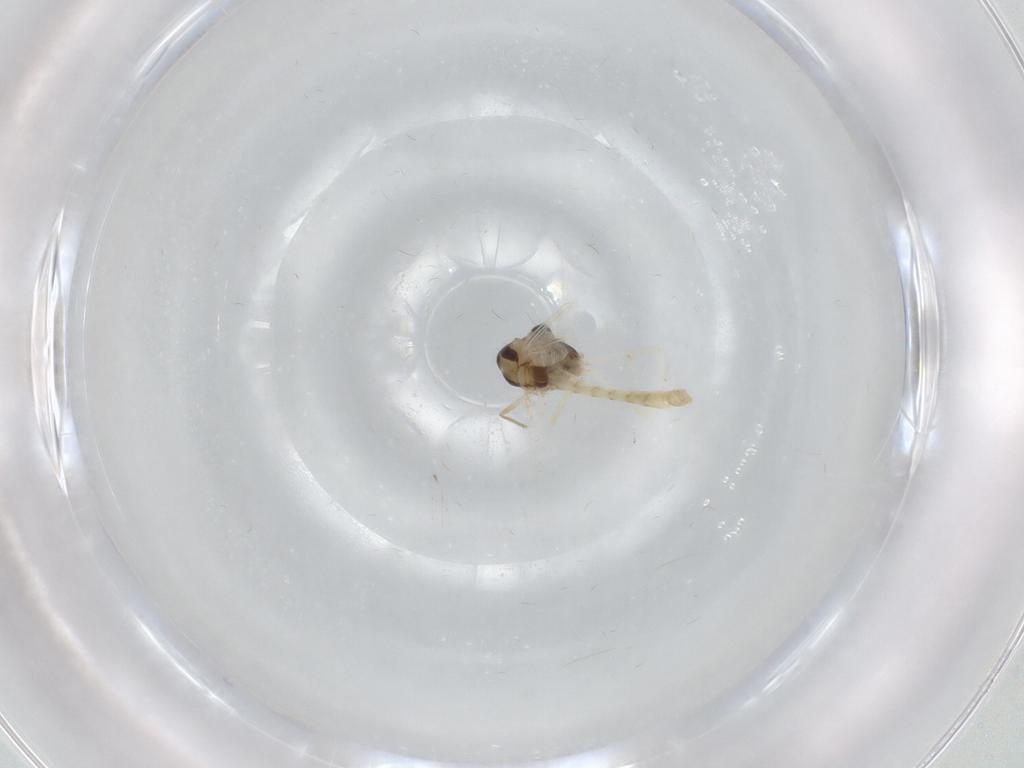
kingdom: Animalia
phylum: Arthropoda
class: Insecta
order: Diptera
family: Chironomidae
